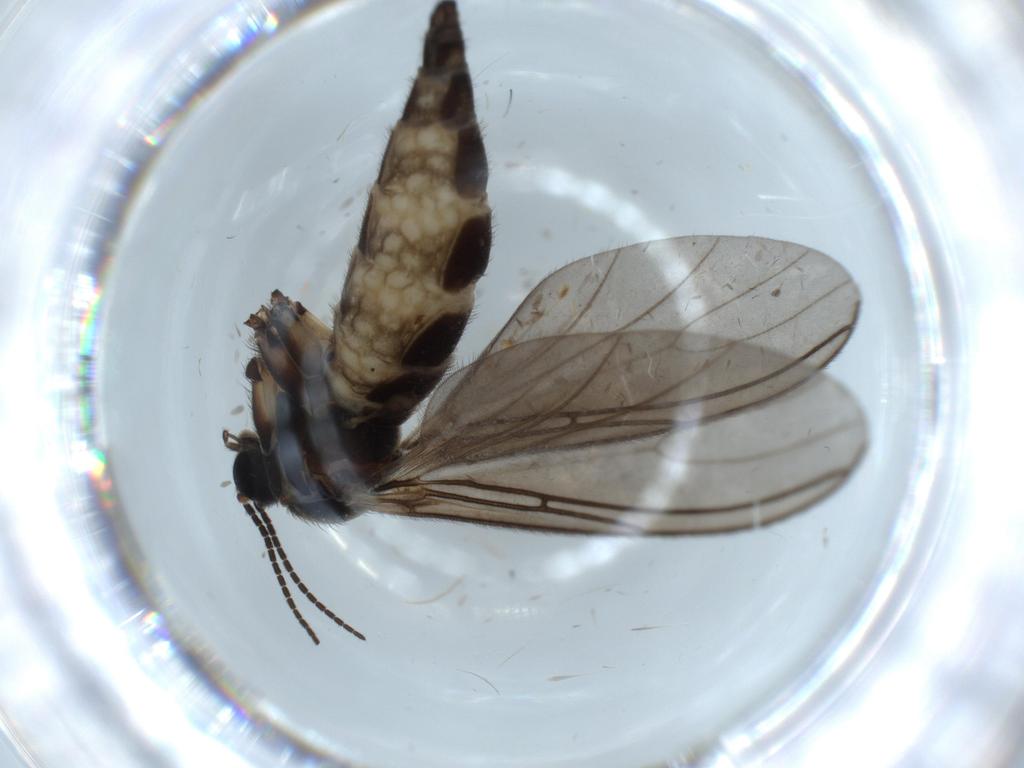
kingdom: Animalia
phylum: Arthropoda
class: Insecta
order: Diptera
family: Sciaridae
